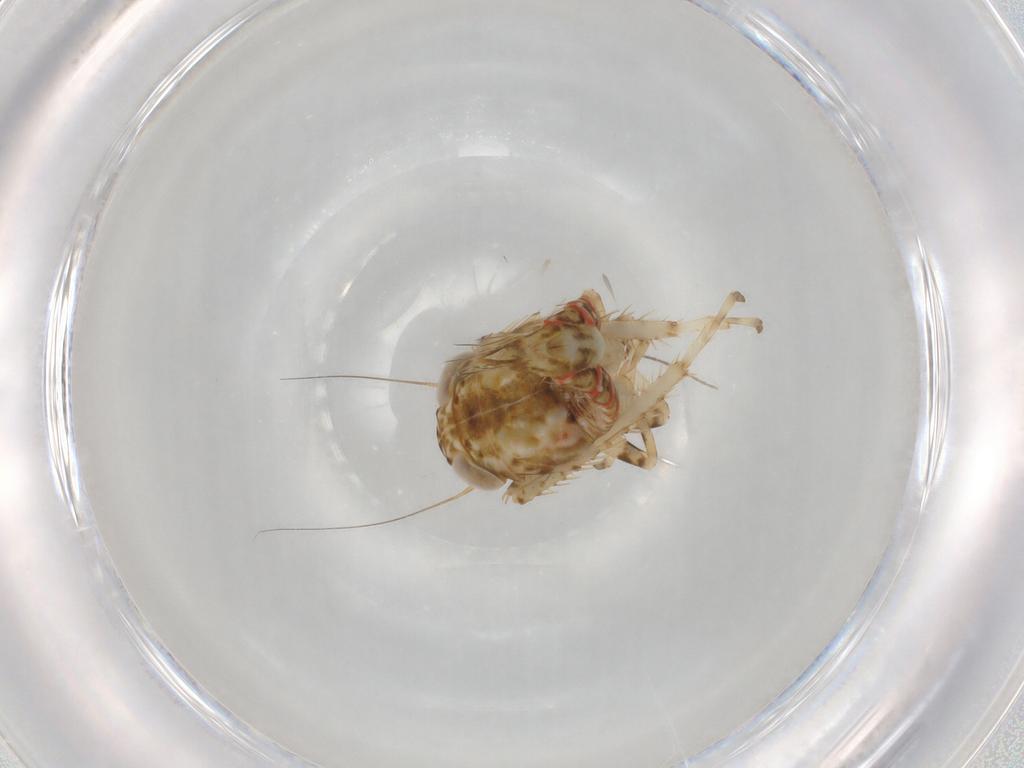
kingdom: Animalia
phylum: Arthropoda
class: Insecta
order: Hemiptera
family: Cicadellidae
